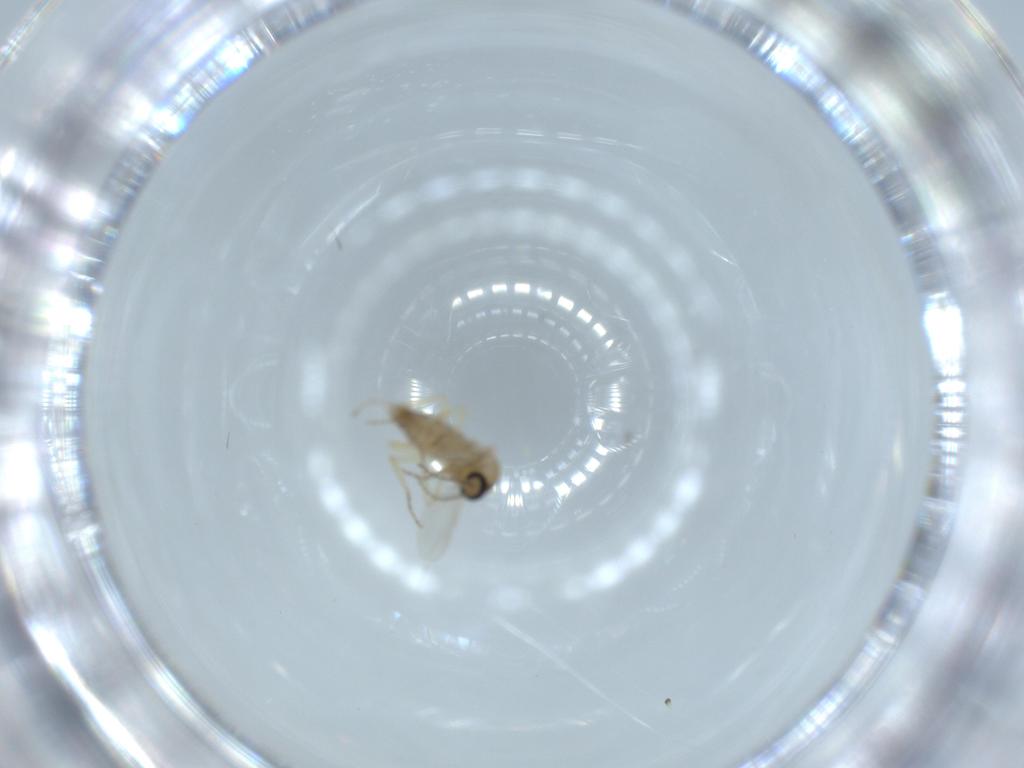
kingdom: Animalia
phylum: Arthropoda
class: Insecta
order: Diptera
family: Ceratopogonidae
